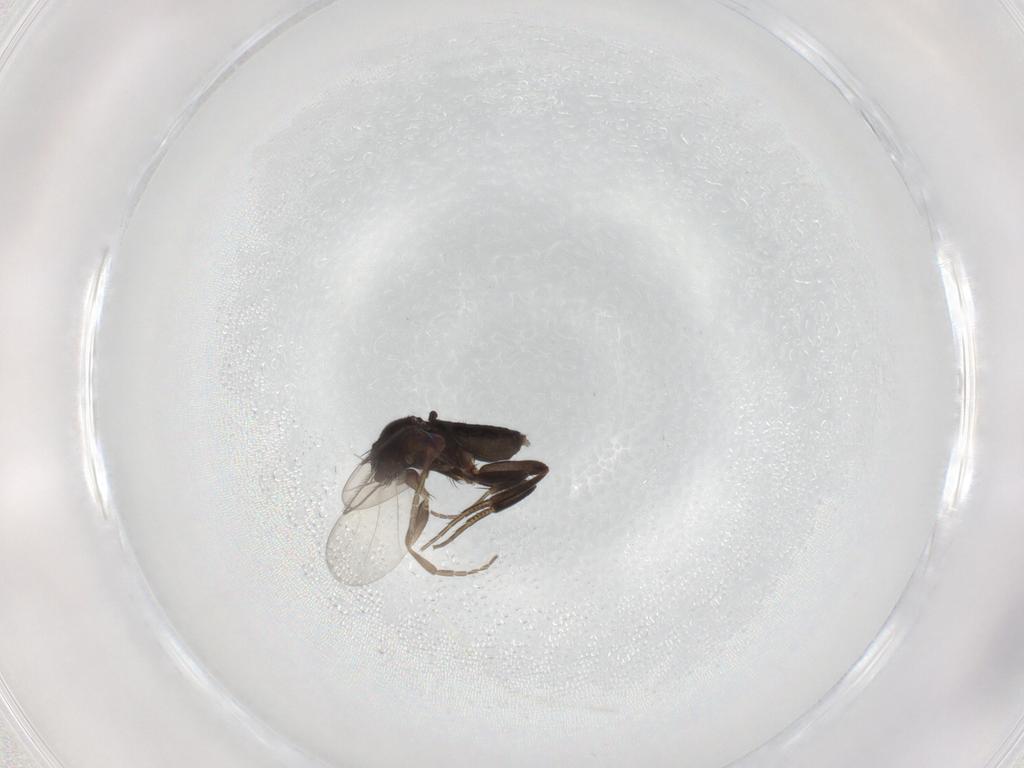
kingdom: Animalia
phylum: Arthropoda
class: Insecta
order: Diptera
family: Phoridae
